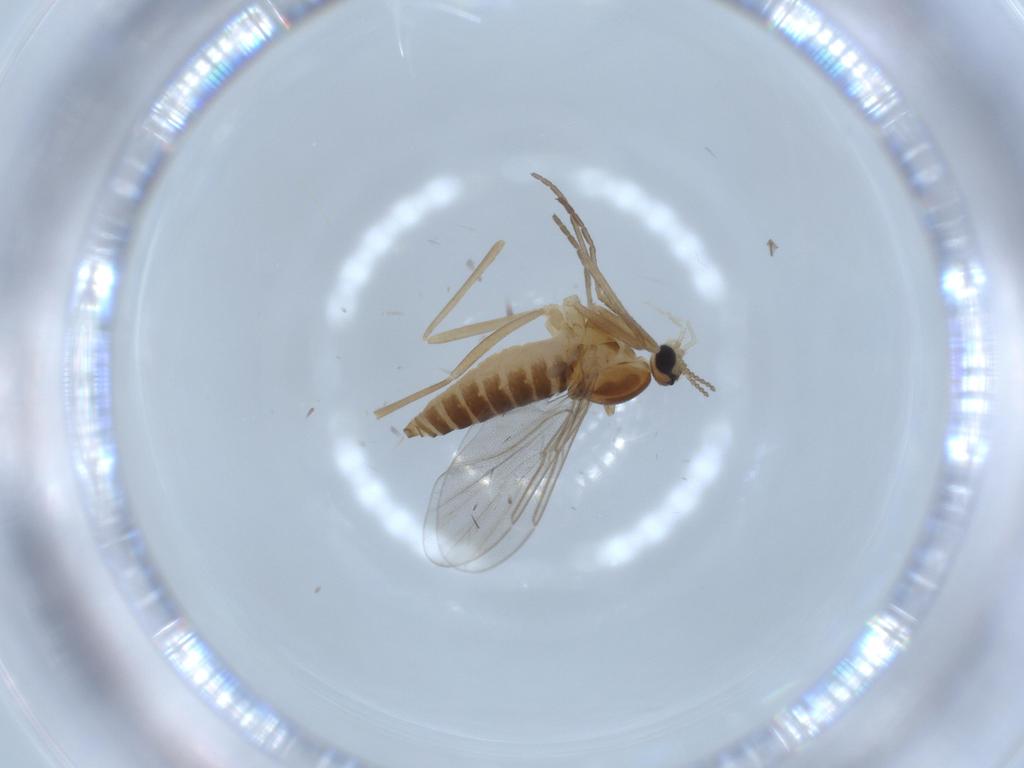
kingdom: Animalia
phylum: Arthropoda
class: Insecta
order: Diptera
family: Cecidomyiidae
